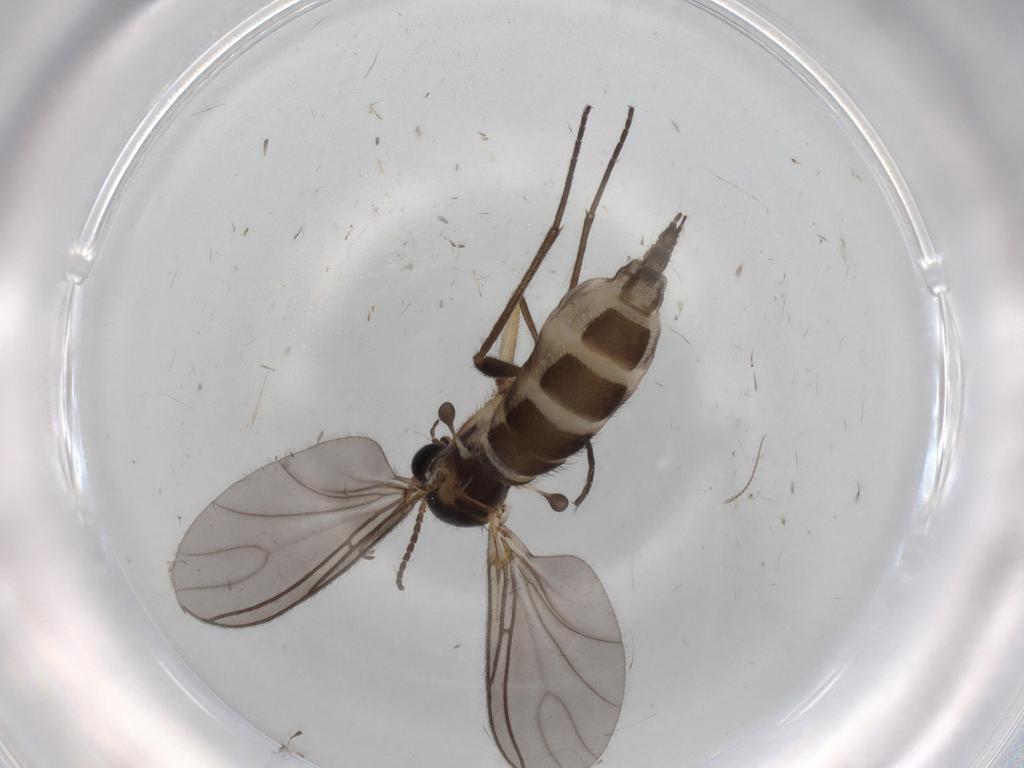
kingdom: Animalia
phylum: Arthropoda
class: Insecta
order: Diptera
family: Sciaridae
